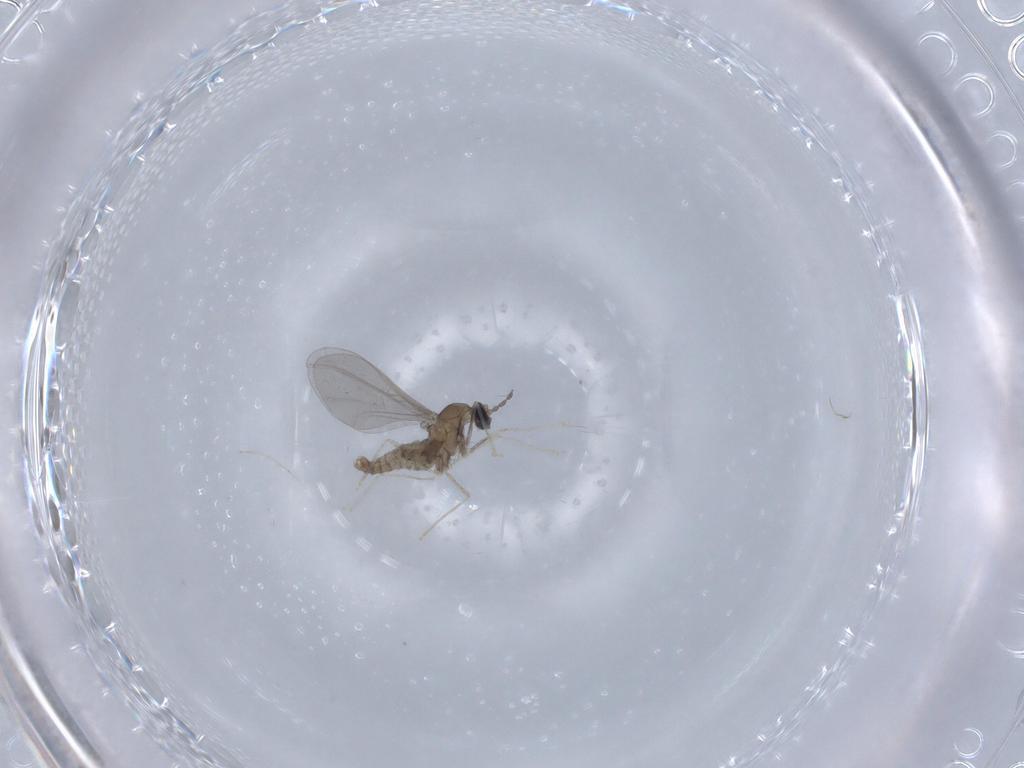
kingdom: Animalia
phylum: Arthropoda
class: Insecta
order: Diptera
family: Cecidomyiidae
